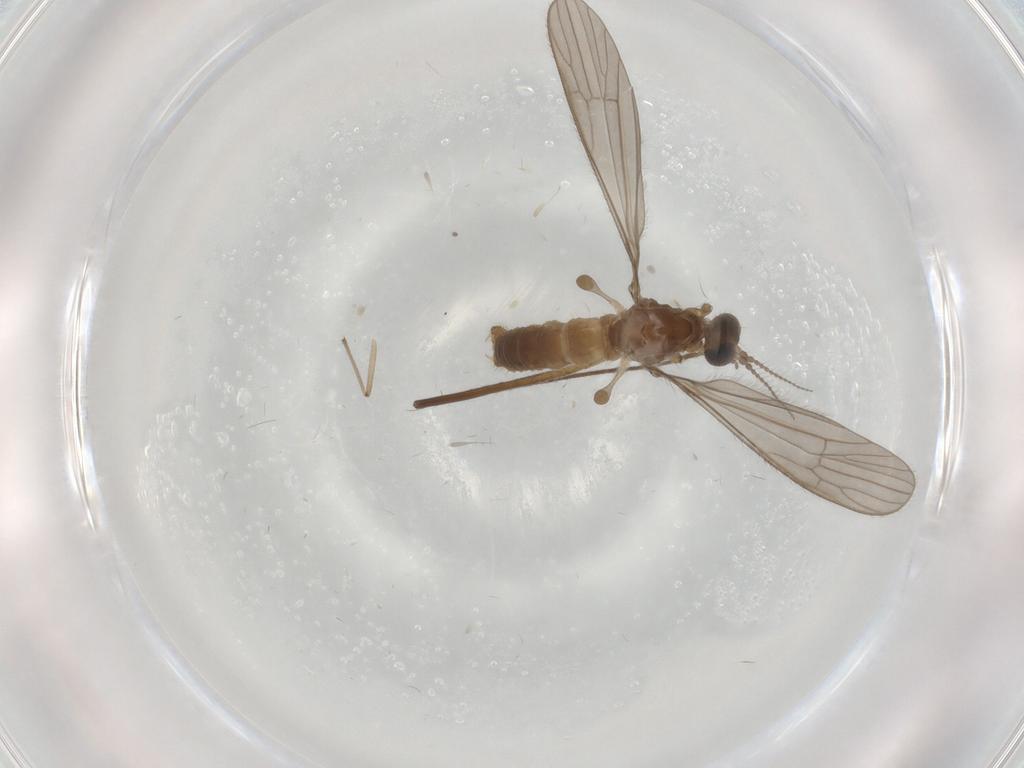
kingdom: Animalia
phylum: Arthropoda
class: Insecta
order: Diptera
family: Limoniidae
